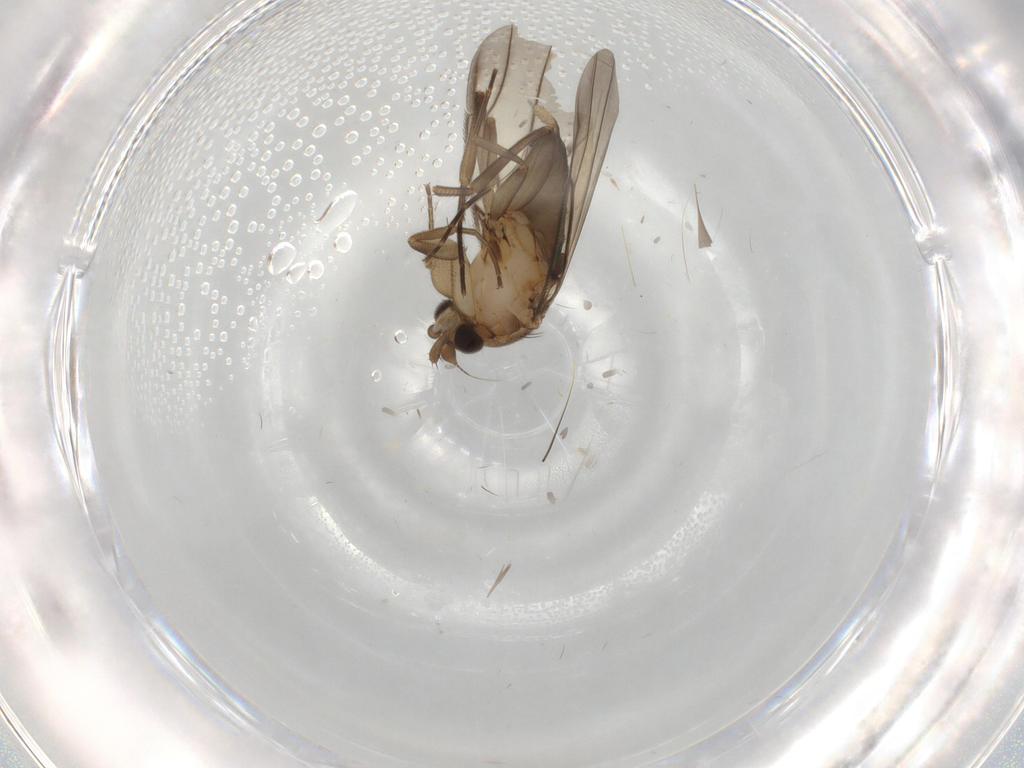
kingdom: Animalia
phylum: Arthropoda
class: Insecta
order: Diptera
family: Phoridae
